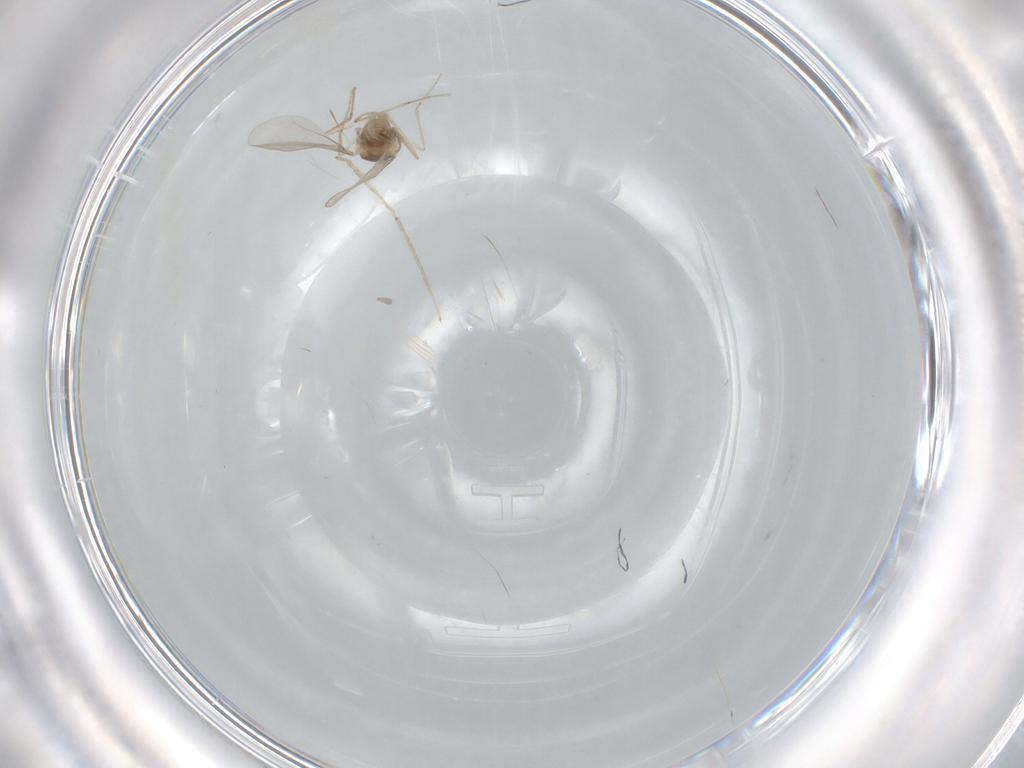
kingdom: Animalia
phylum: Arthropoda
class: Insecta
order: Diptera
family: Cecidomyiidae
